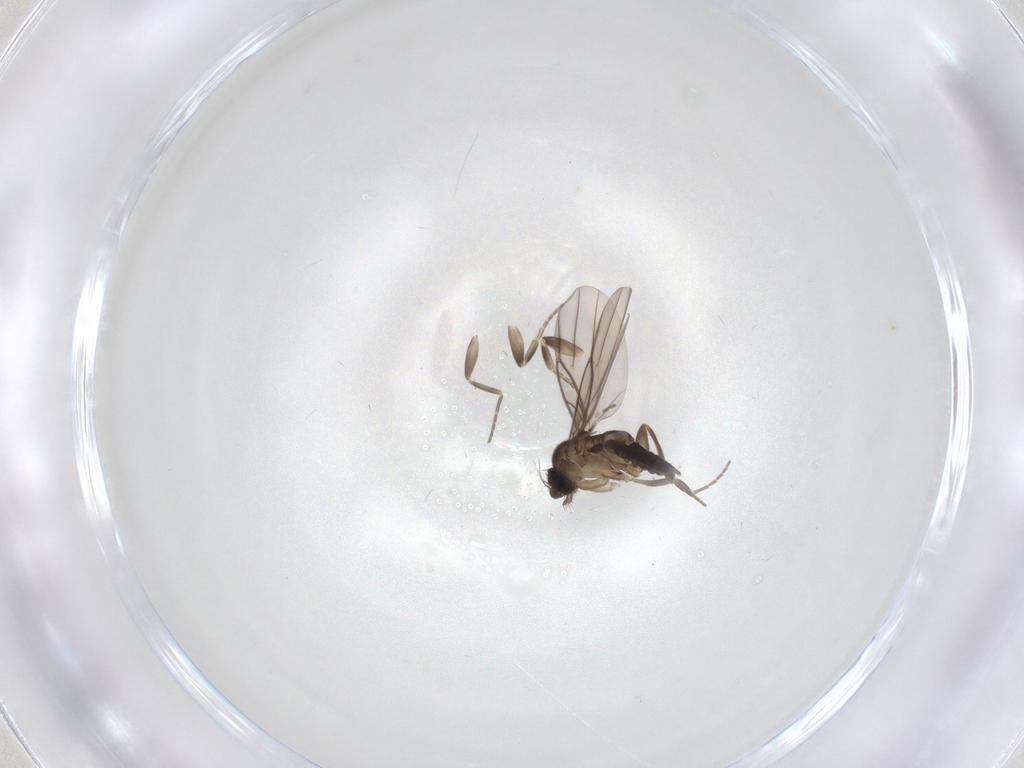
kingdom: Animalia
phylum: Arthropoda
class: Insecta
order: Diptera
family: Phoridae
